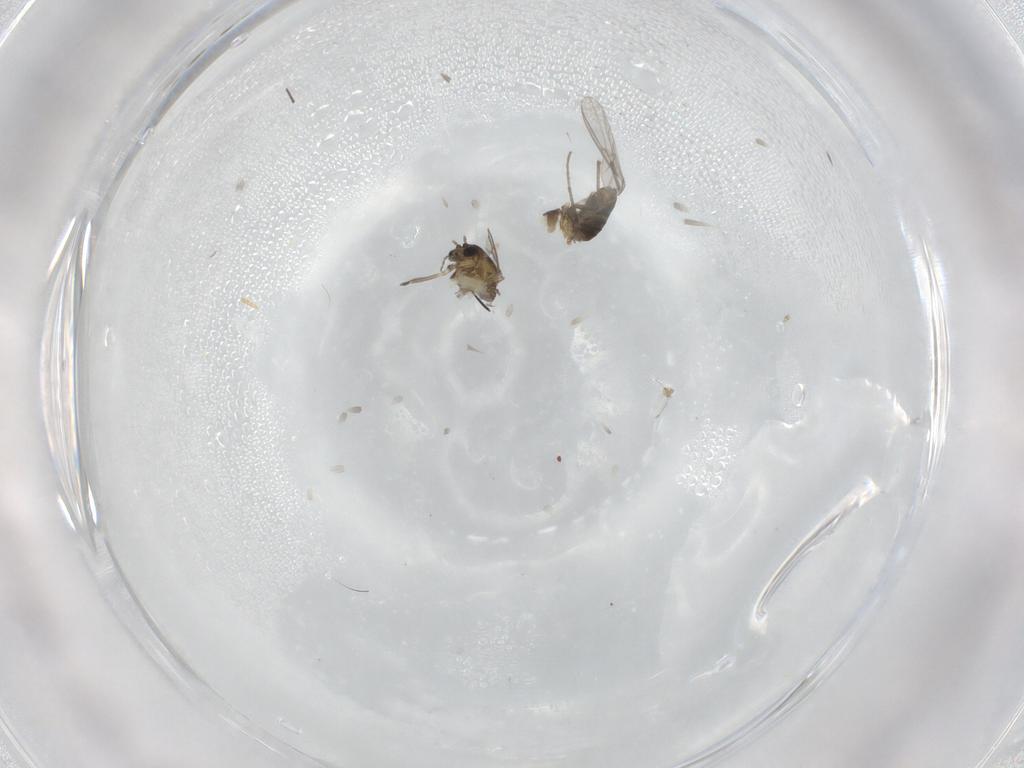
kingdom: Animalia
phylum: Arthropoda
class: Insecta
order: Diptera
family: Chironomidae
